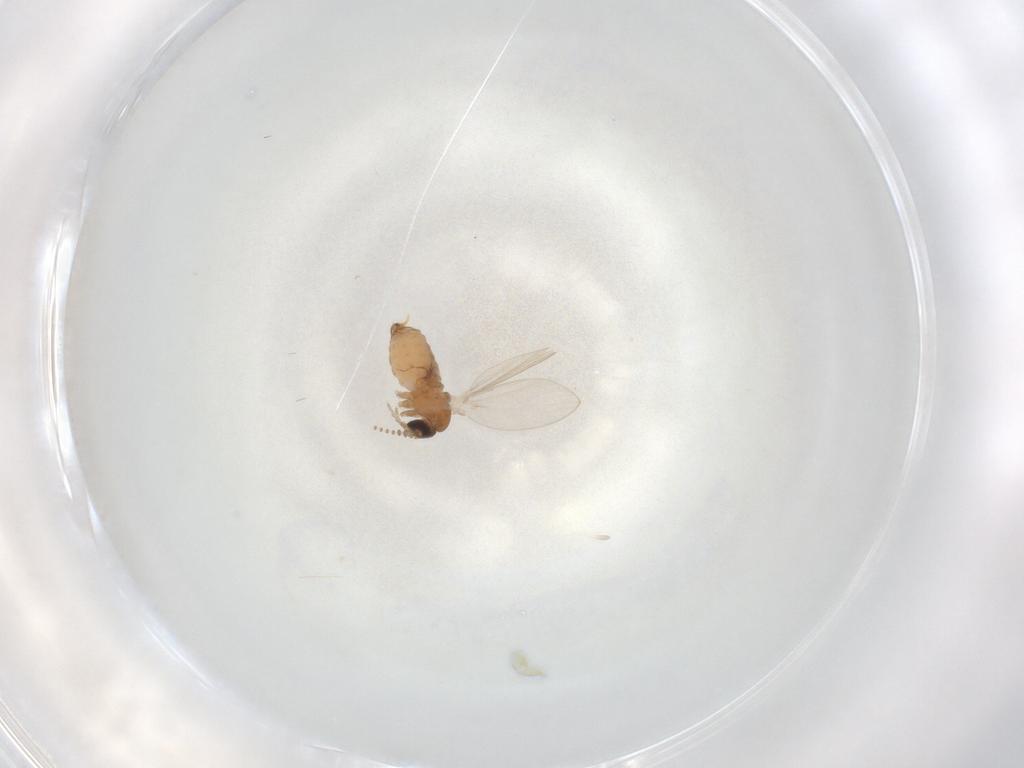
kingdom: Animalia
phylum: Arthropoda
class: Insecta
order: Diptera
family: Psychodidae
